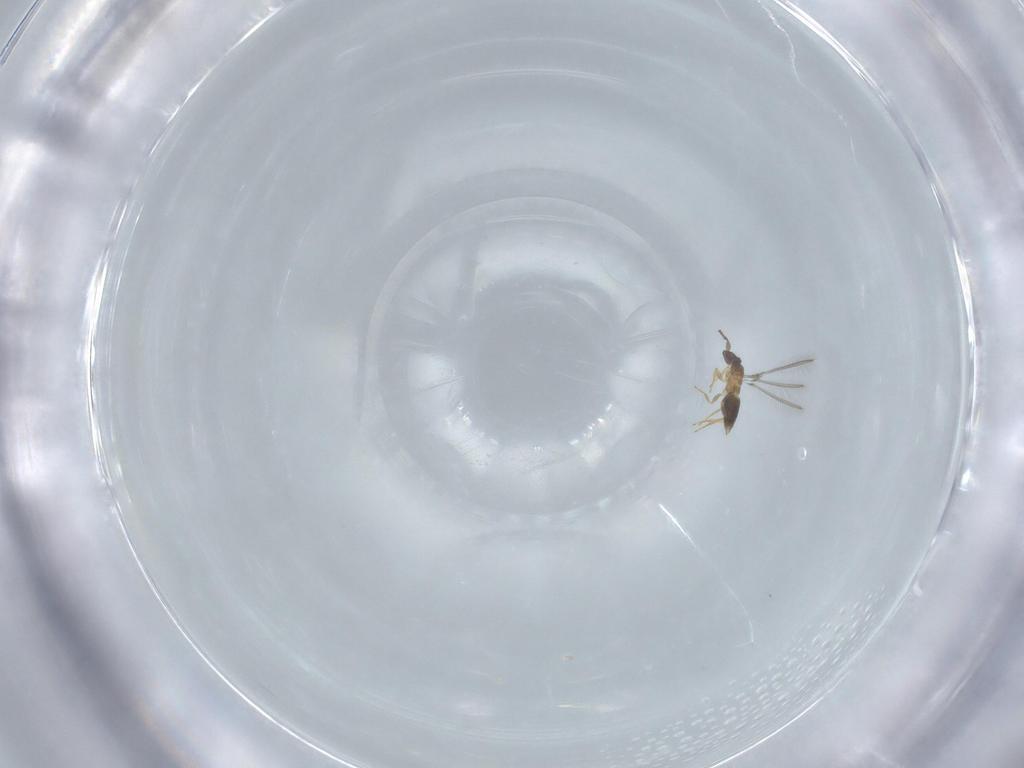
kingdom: Animalia
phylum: Arthropoda
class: Insecta
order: Hymenoptera
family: Mymaridae
